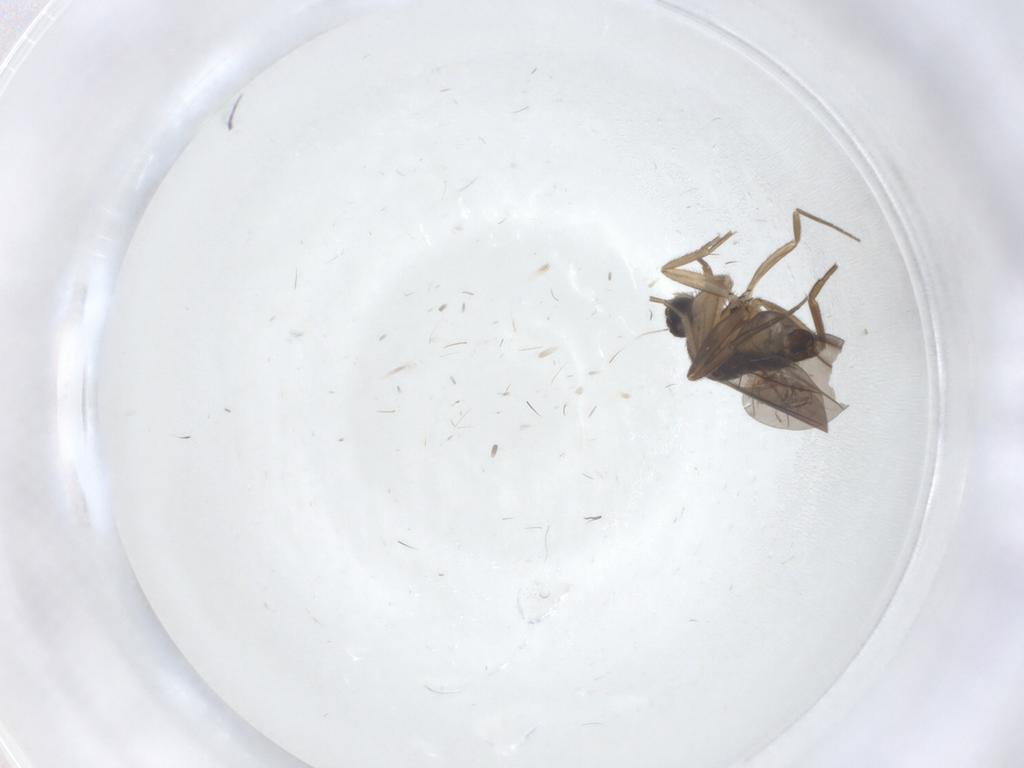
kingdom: Animalia
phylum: Arthropoda
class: Insecta
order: Diptera
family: Chironomidae
